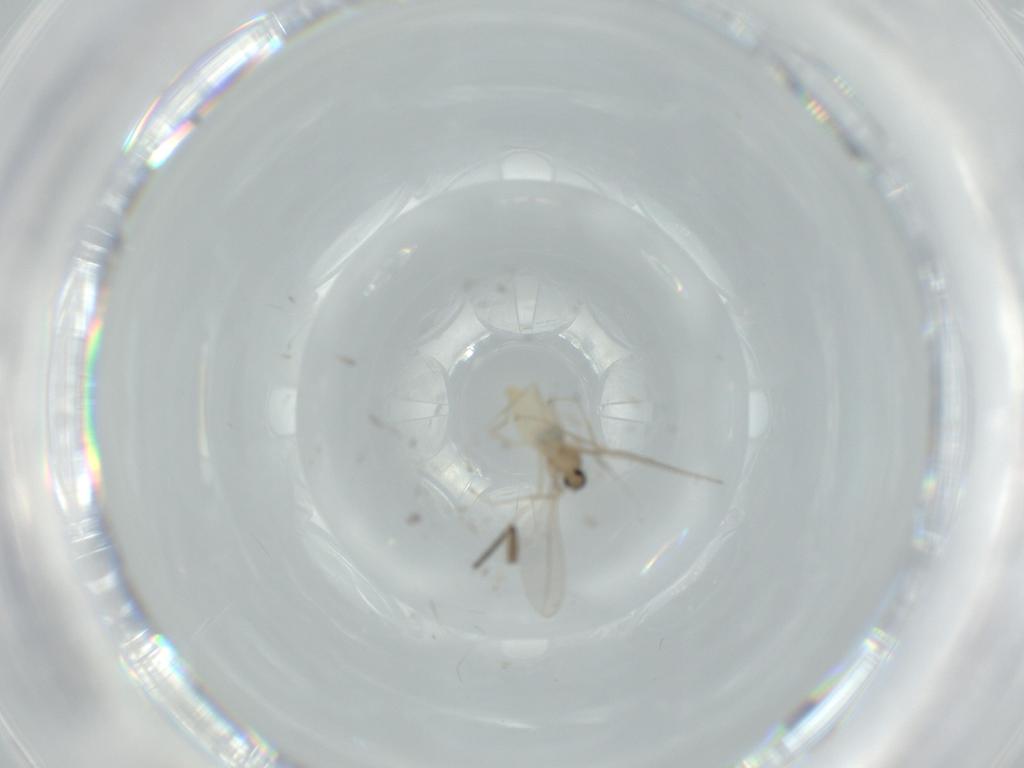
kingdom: Animalia
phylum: Arthropoda
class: Insecta
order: Diptera
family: Cecidomyiidae
